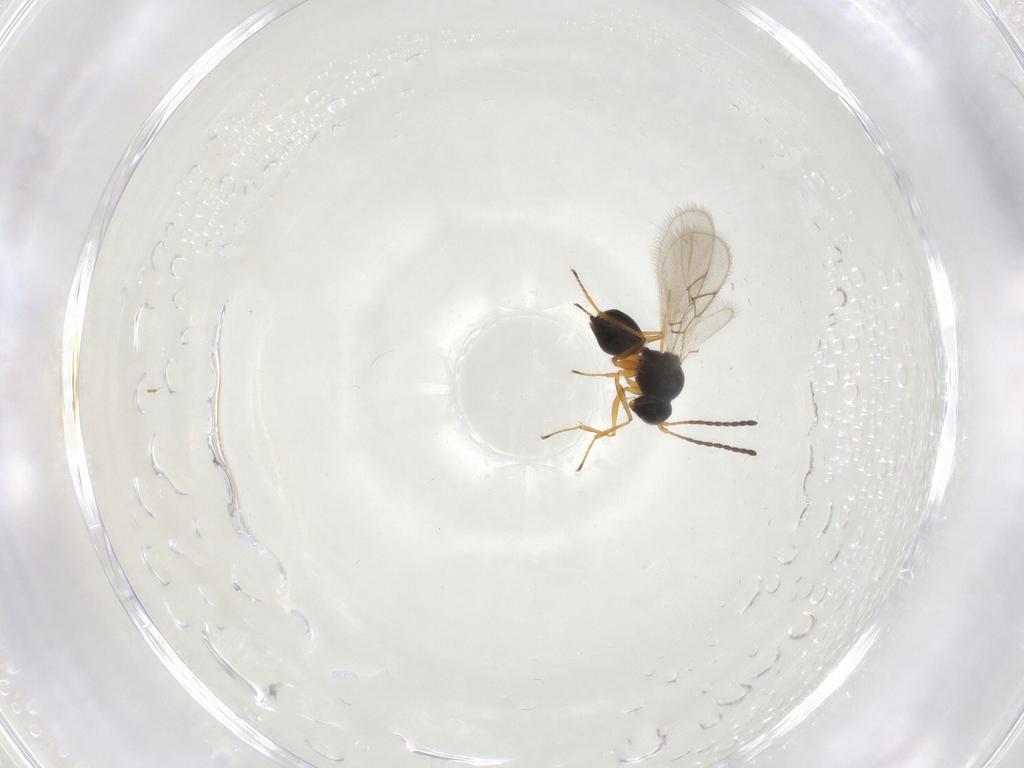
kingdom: Animalia
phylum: Arthropoda
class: Insecta
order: Hymenoptera
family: Figitidae
